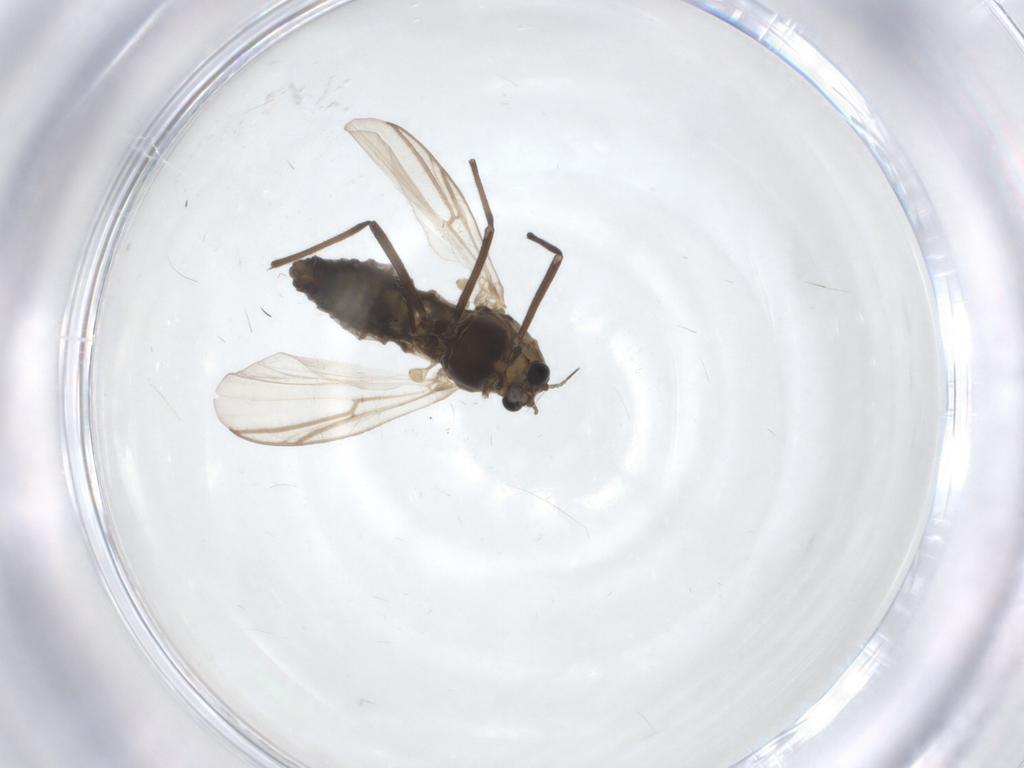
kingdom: Animalia
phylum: Arthropoda
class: Insecta
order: Diptera
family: Chironomidae
